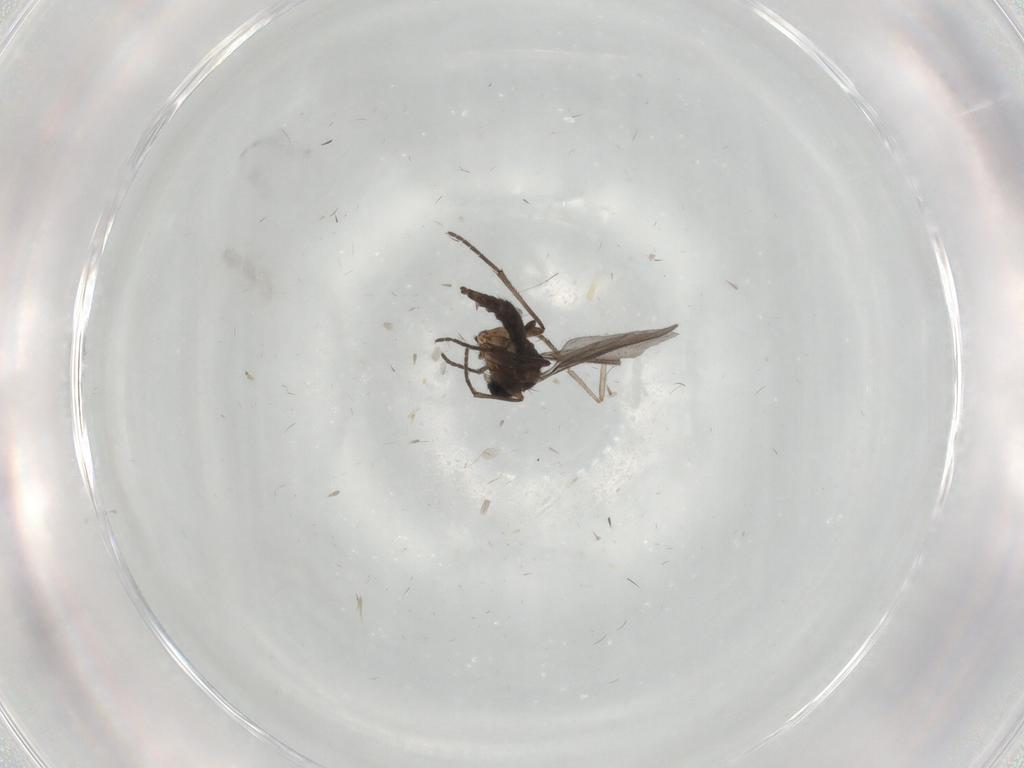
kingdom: Animalia
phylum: Arthropoda
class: Insecta
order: Diptera
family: Sciaridae
